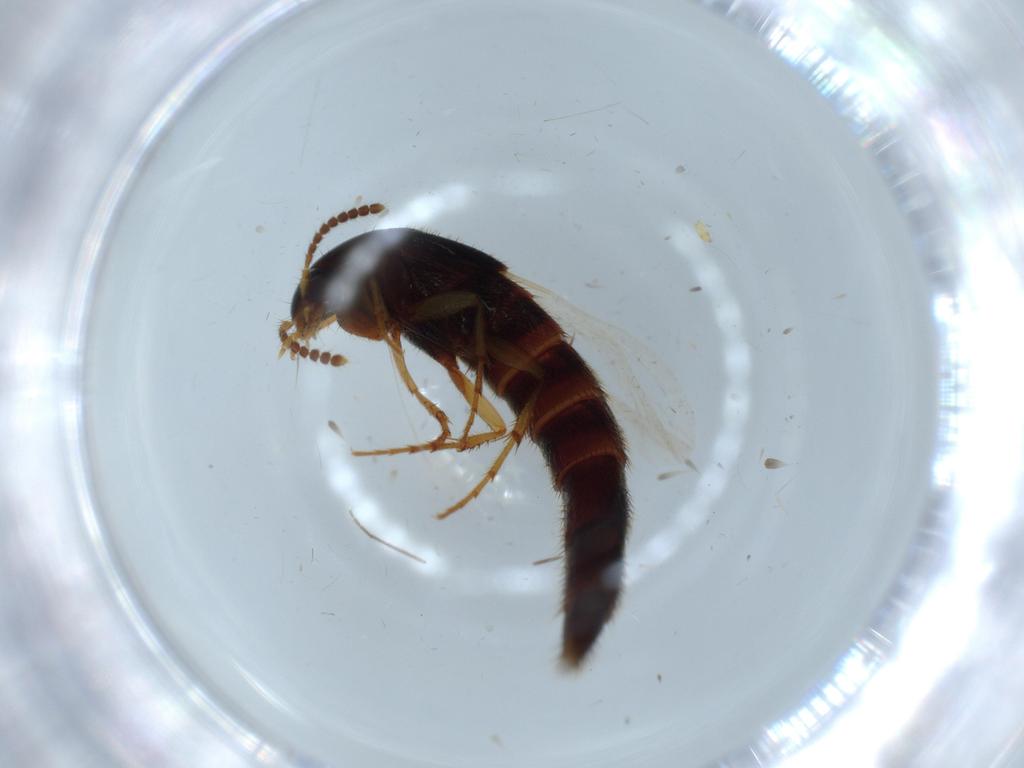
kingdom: Animalia
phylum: Arthropoda
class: Insecta
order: Coleoptera
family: Staphylinidae
